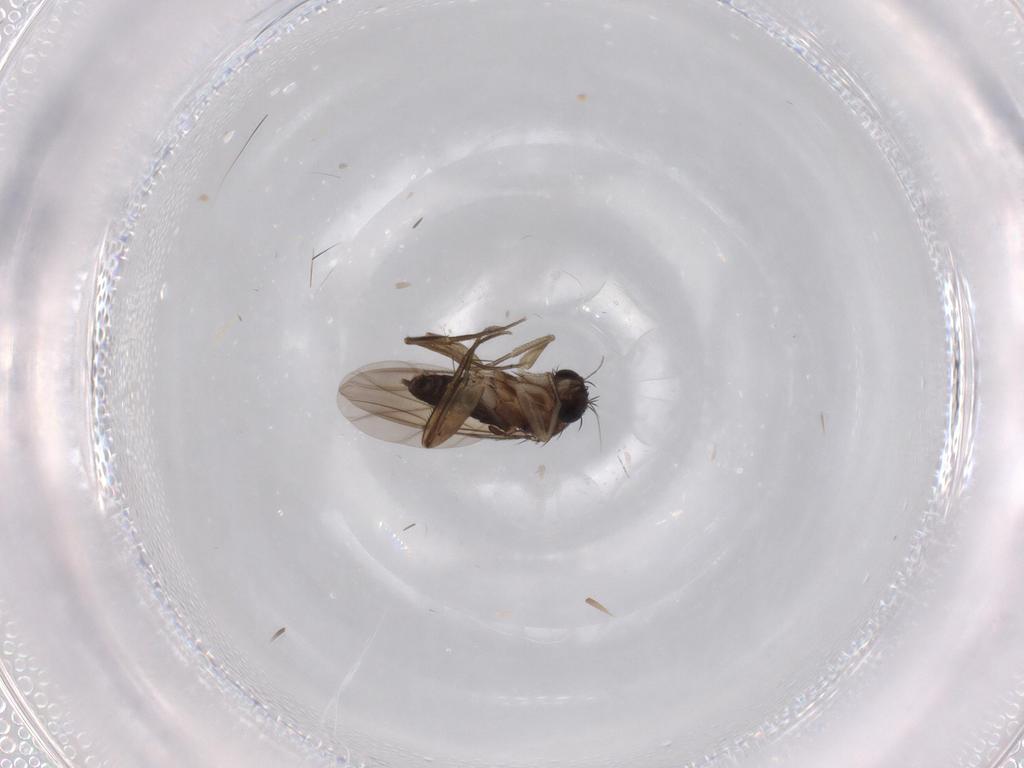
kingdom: Animalia
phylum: Arthropoda
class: Insecta
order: Diptera
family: Phoridae
